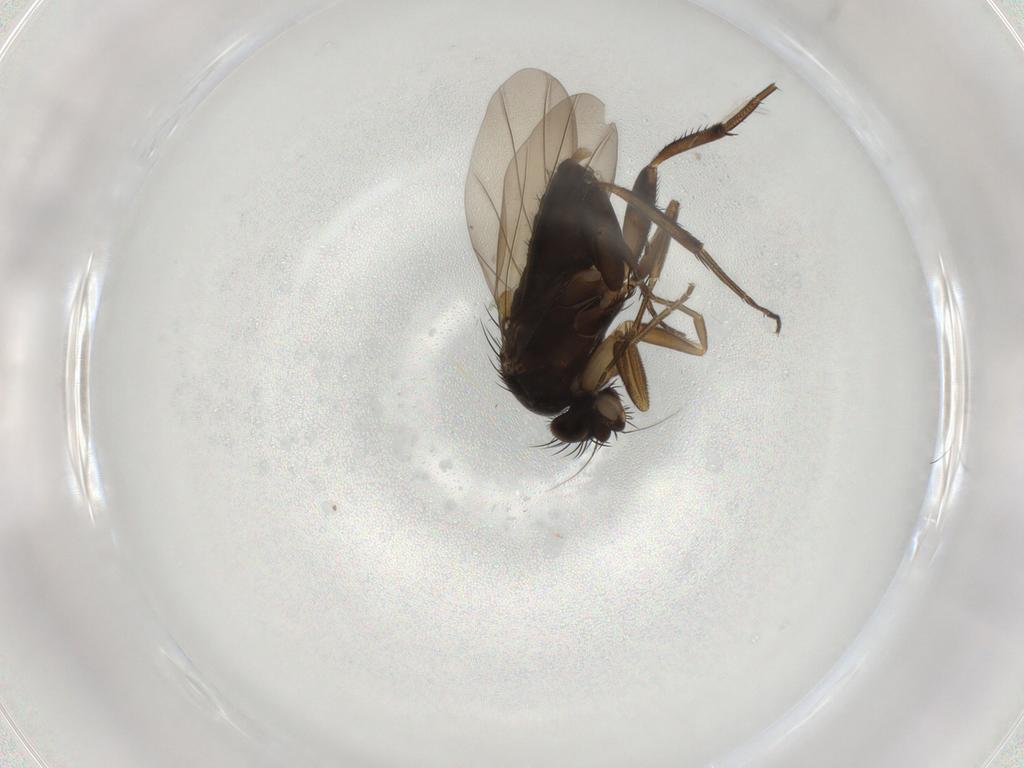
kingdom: Animalia
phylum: Arthropoda
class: Insecta
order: Diptera
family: Phoridae
